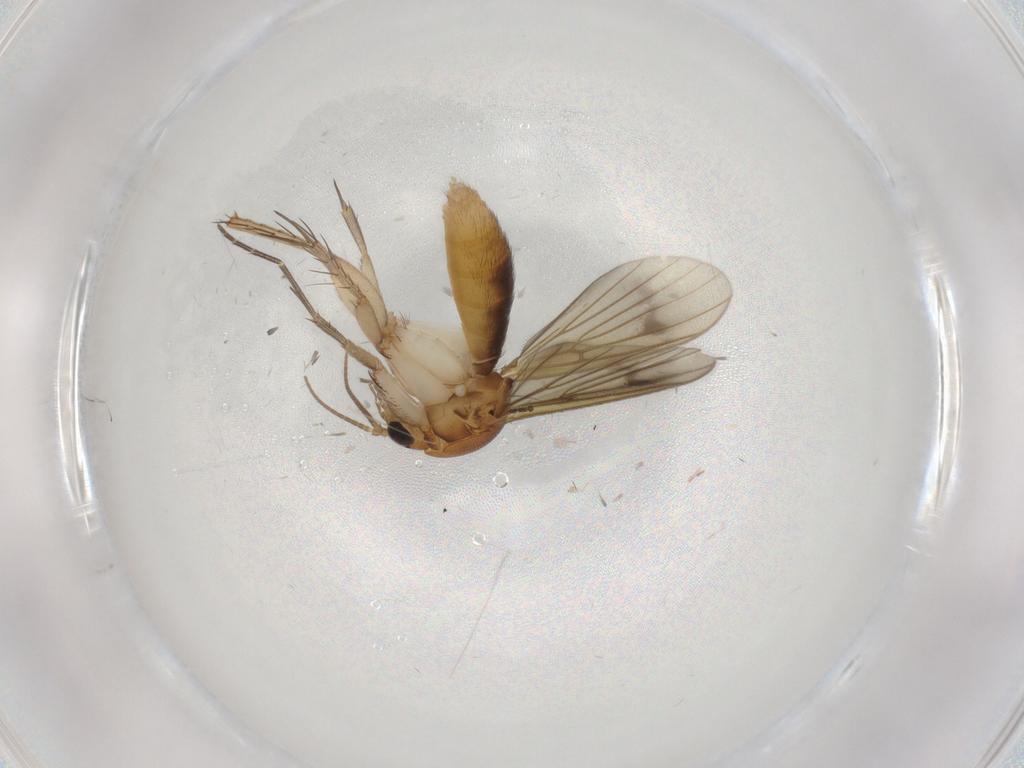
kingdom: Animalia
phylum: Arthropoda
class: Insecta
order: Diptera
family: Mycetophilidae
